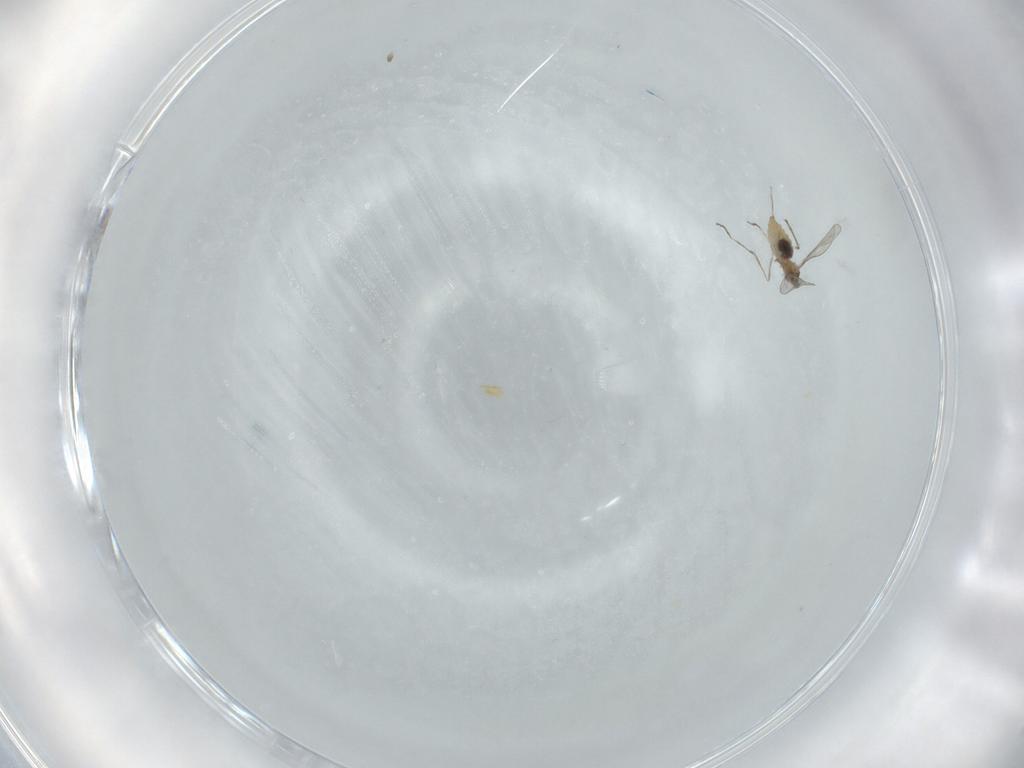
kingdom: Animalia
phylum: Arthropoda
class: Insecta
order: Diptera
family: Cecidomyiidae
